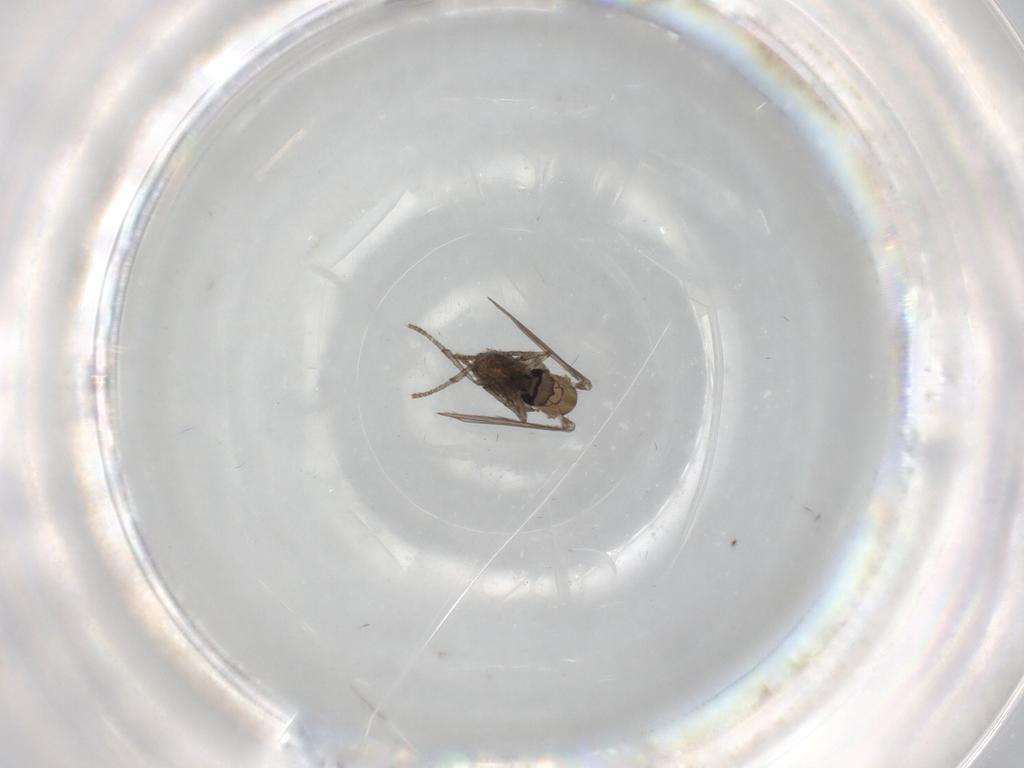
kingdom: Animalia
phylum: Arthropoda
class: Insecta
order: Diptera
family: Psychodidae
